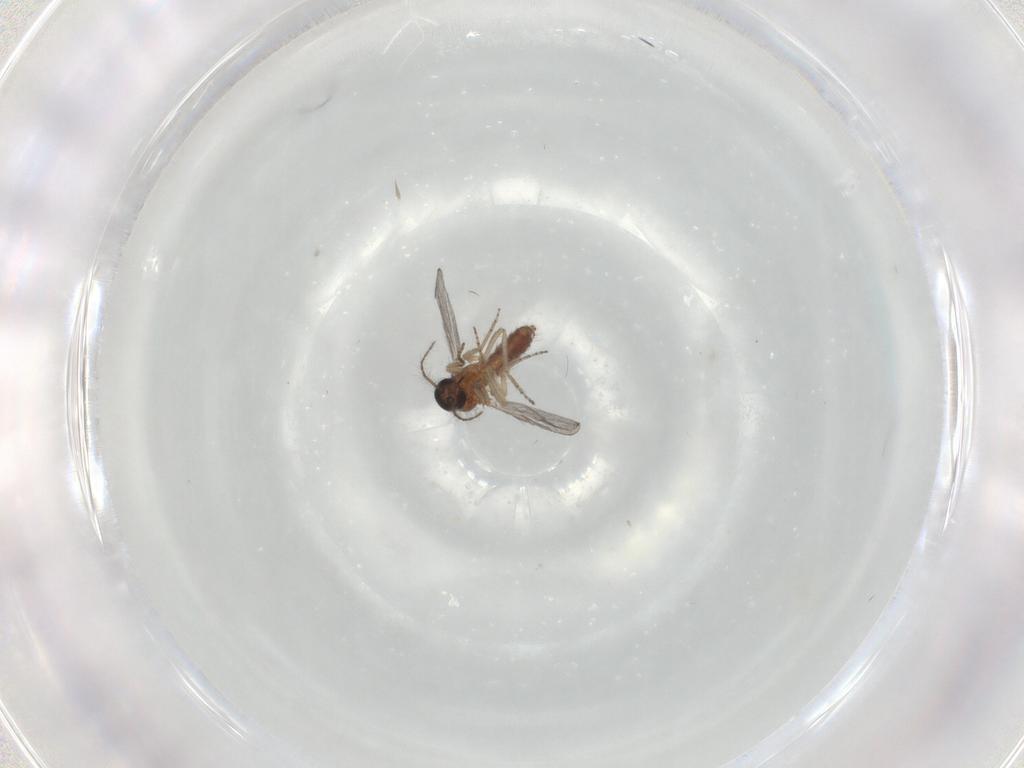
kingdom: Animalia
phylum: Arthropoda
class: Insecta
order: Diptera
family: Ceratopogonidae
